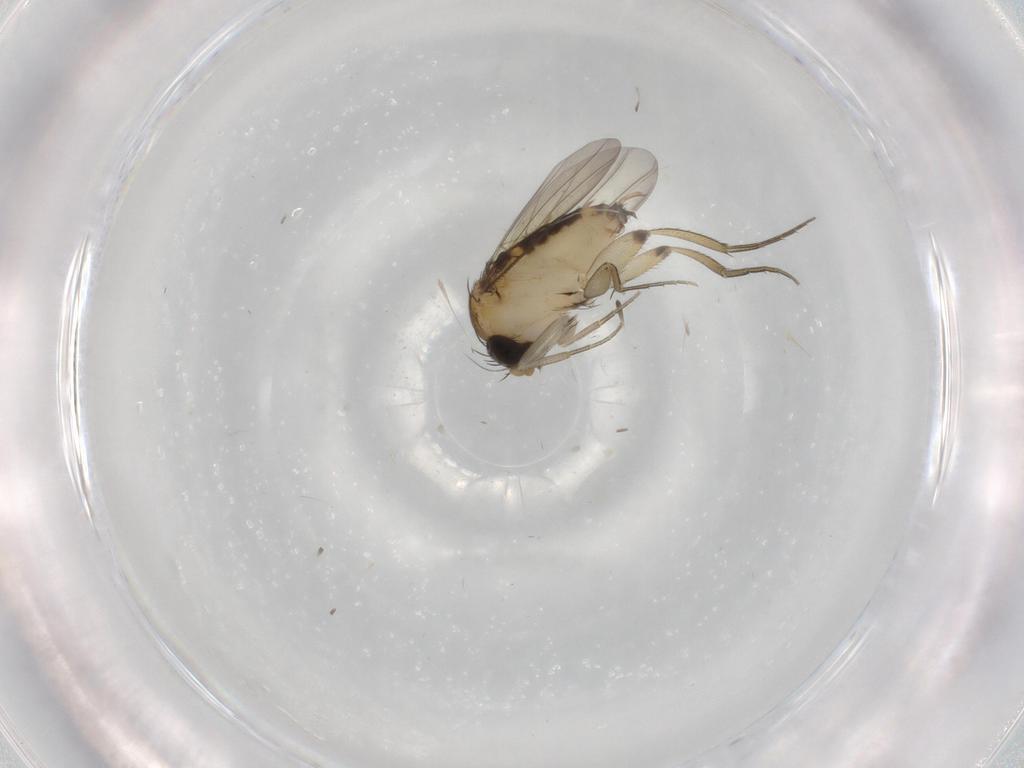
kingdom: Animalia
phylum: Arthropoda
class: Insecta
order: Diptera
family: Phoridae
